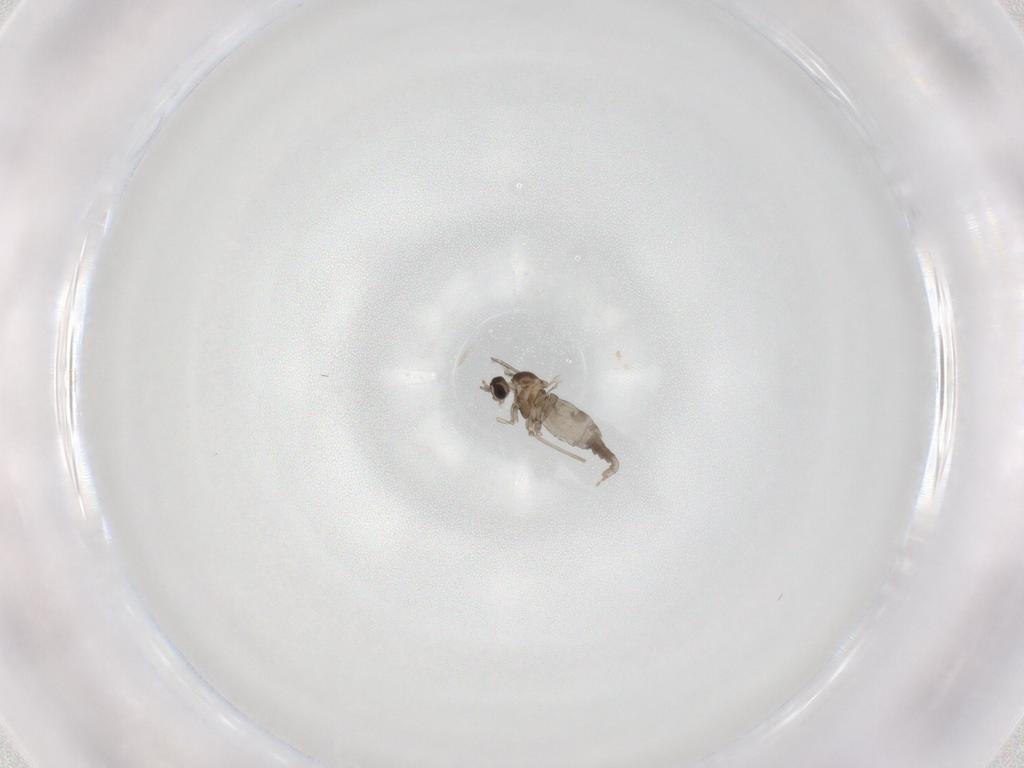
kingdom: Animalia
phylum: Arthropoda
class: Insecta
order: Diptera
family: Cecidomyiidae
